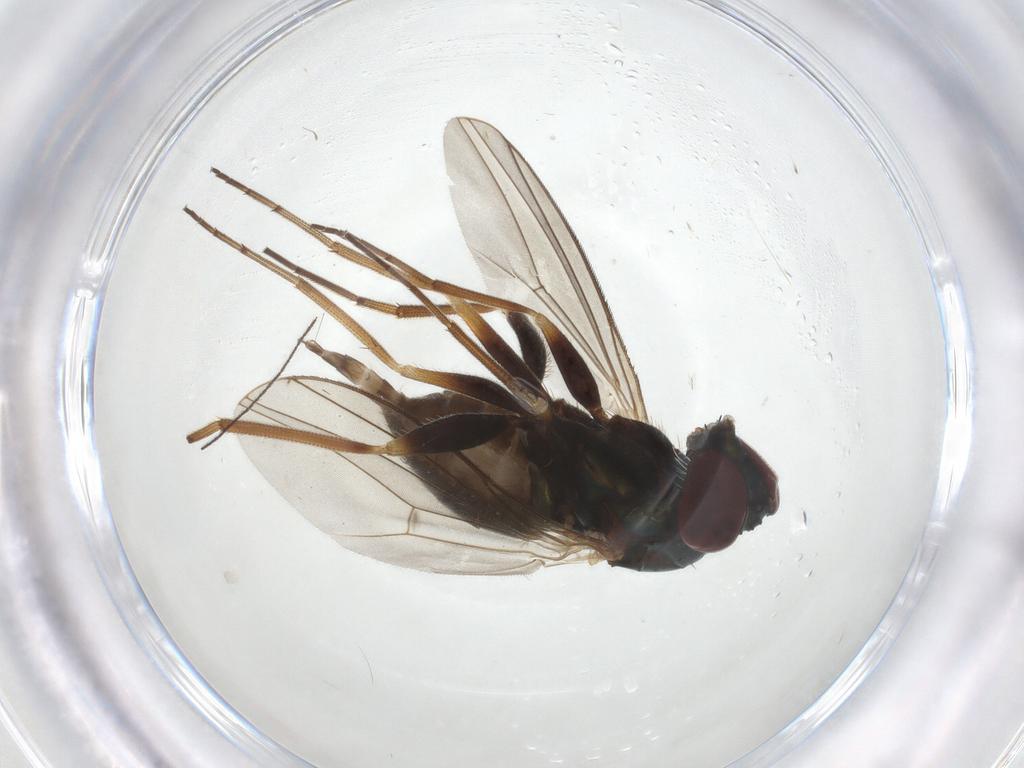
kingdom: Animalia
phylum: Arthropoda
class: Insecta
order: Diptera
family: Dolichopodidae
